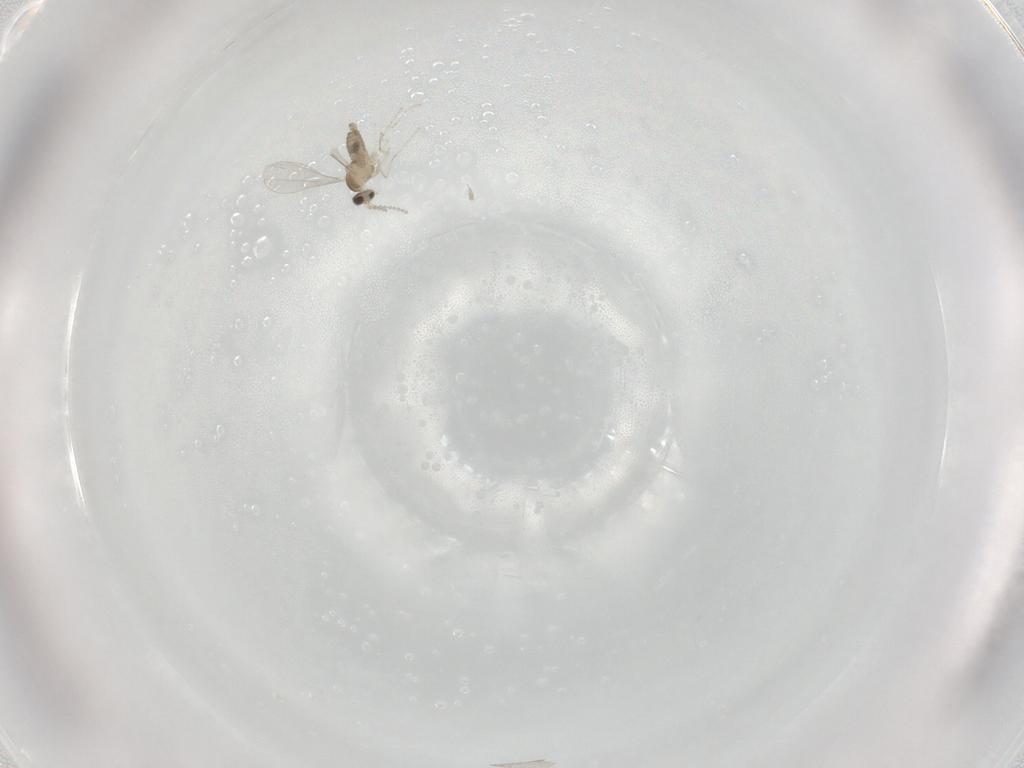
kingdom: Animalia
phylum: Arthropoda
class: Insecta
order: Diptera
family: Cecidomyiidae
